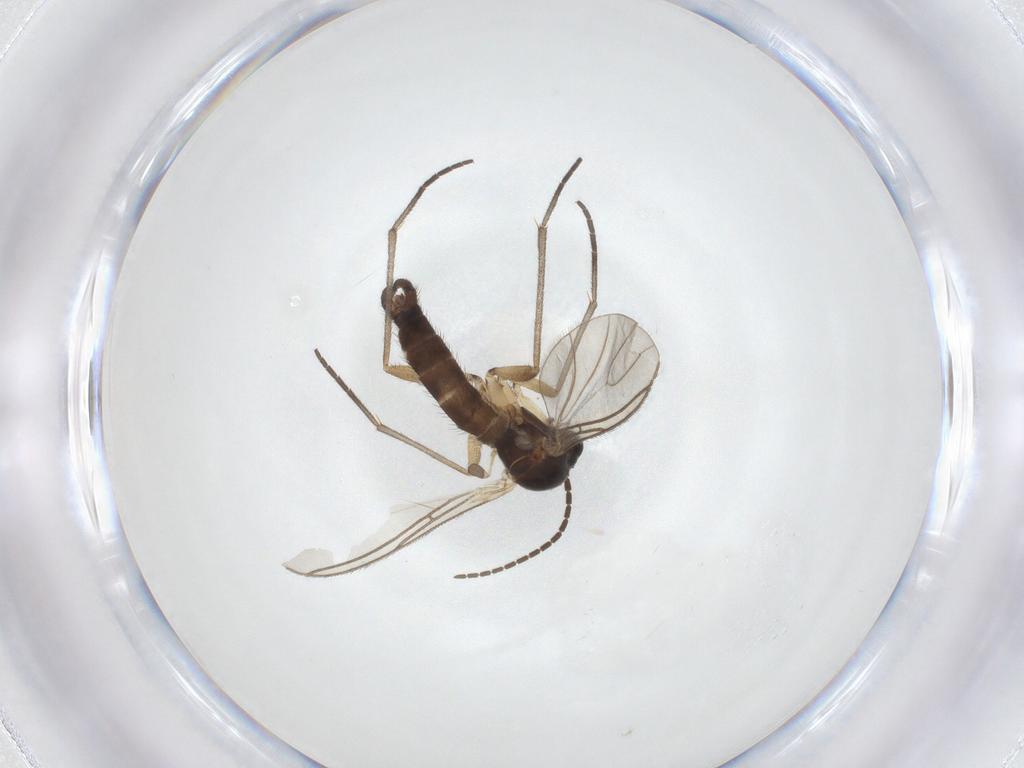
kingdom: Animalia
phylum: Arthropoda
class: Insecta
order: Diptera
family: Sciaridae
